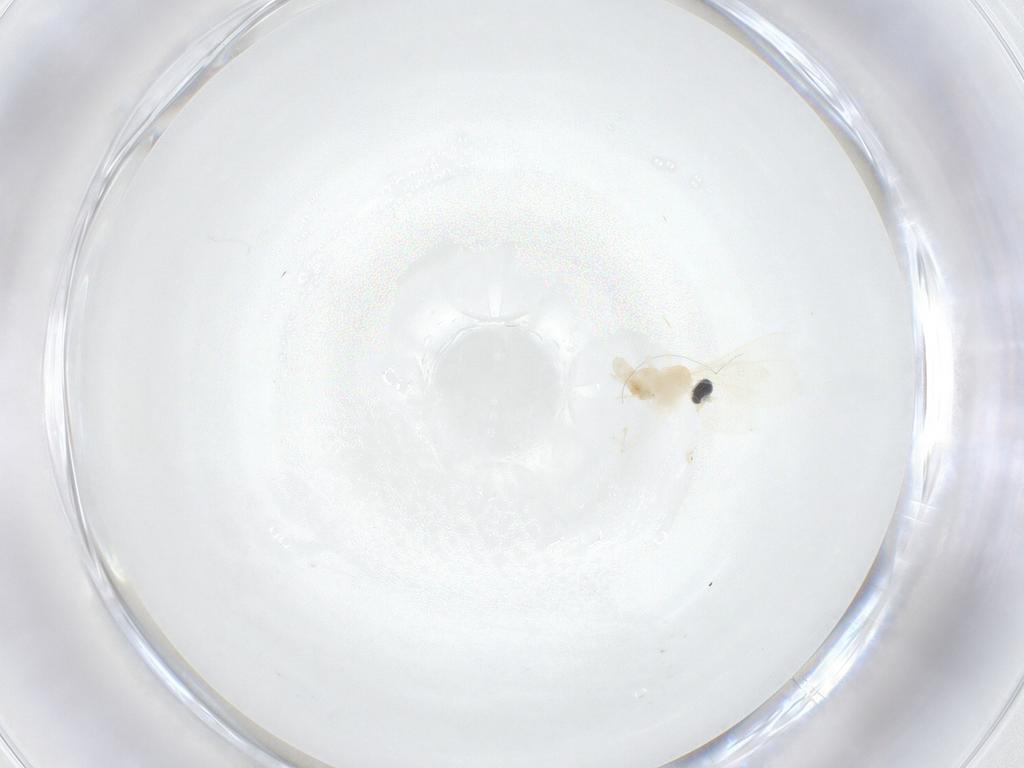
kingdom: Animalia
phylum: Arthropoda
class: Insecta
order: Diptera
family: Cecidomyiidae
